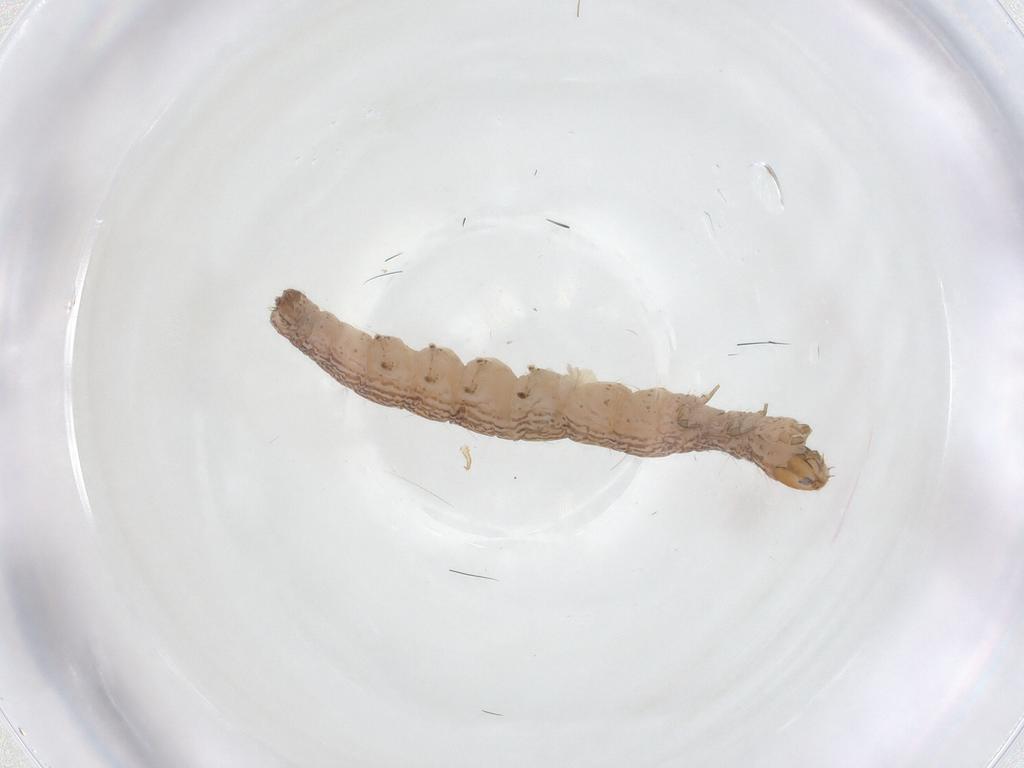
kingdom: Animalia
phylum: Arthropoda
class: Insecta
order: Lepidoptera
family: Gelechiidae
